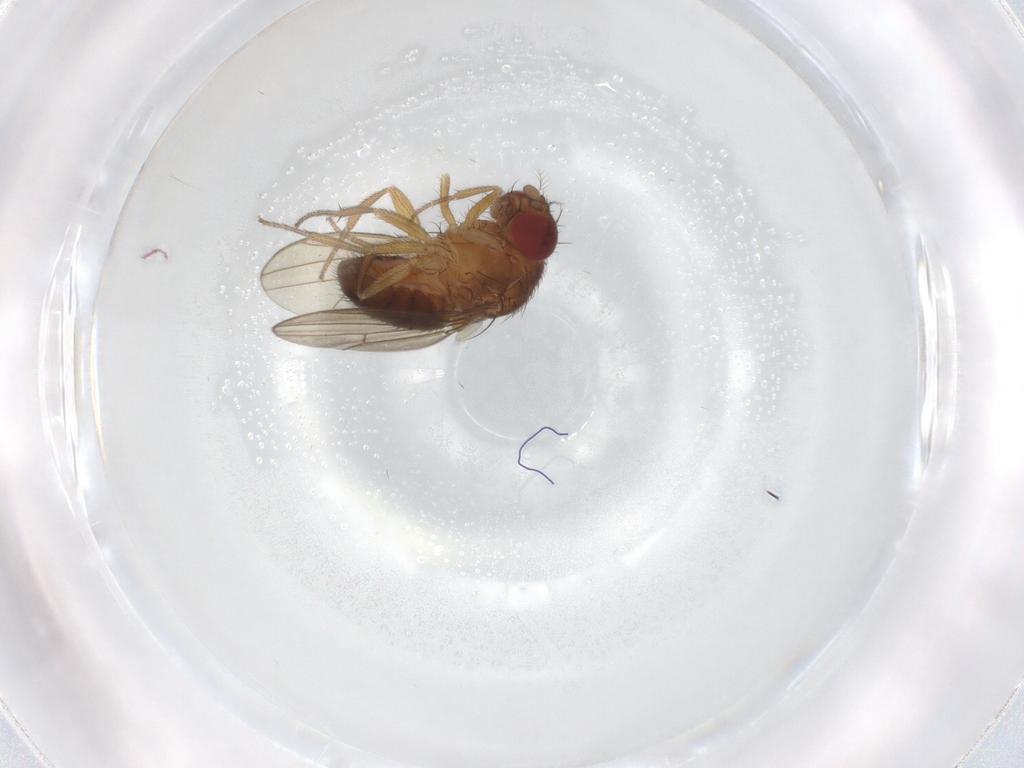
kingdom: Animalia
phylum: Arthropoda
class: Insecta
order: Diptera
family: Drosophilidae
